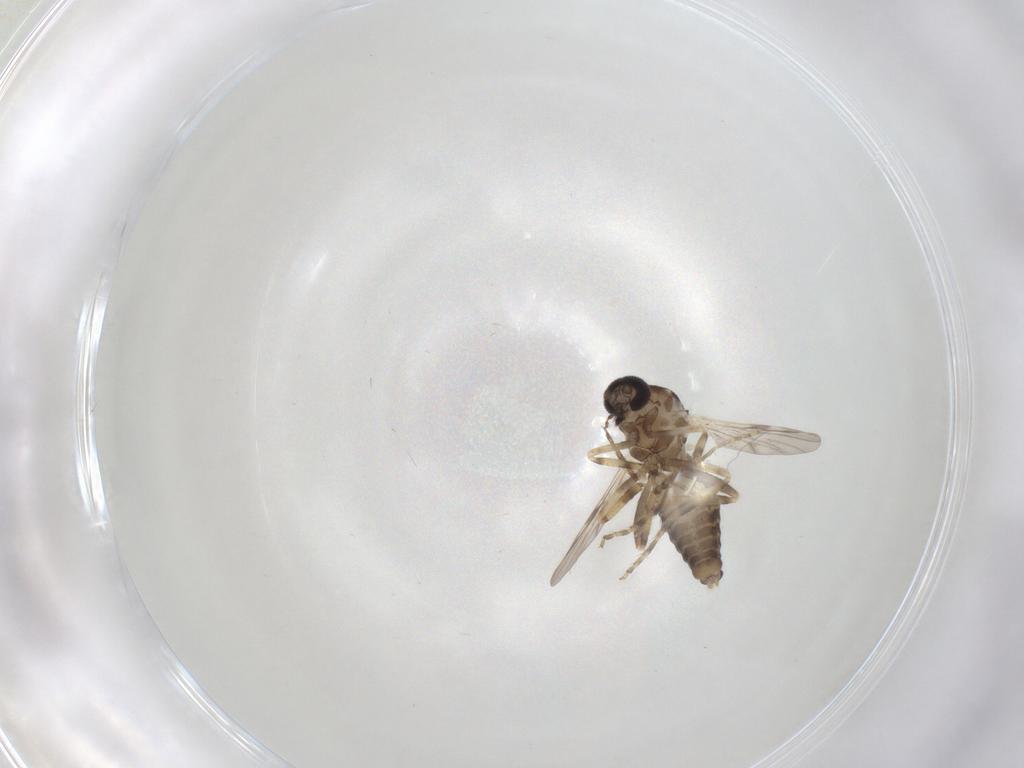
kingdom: Animalia
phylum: Arthropoda
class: Insecta
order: Diptera
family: Ceratopogonidae
